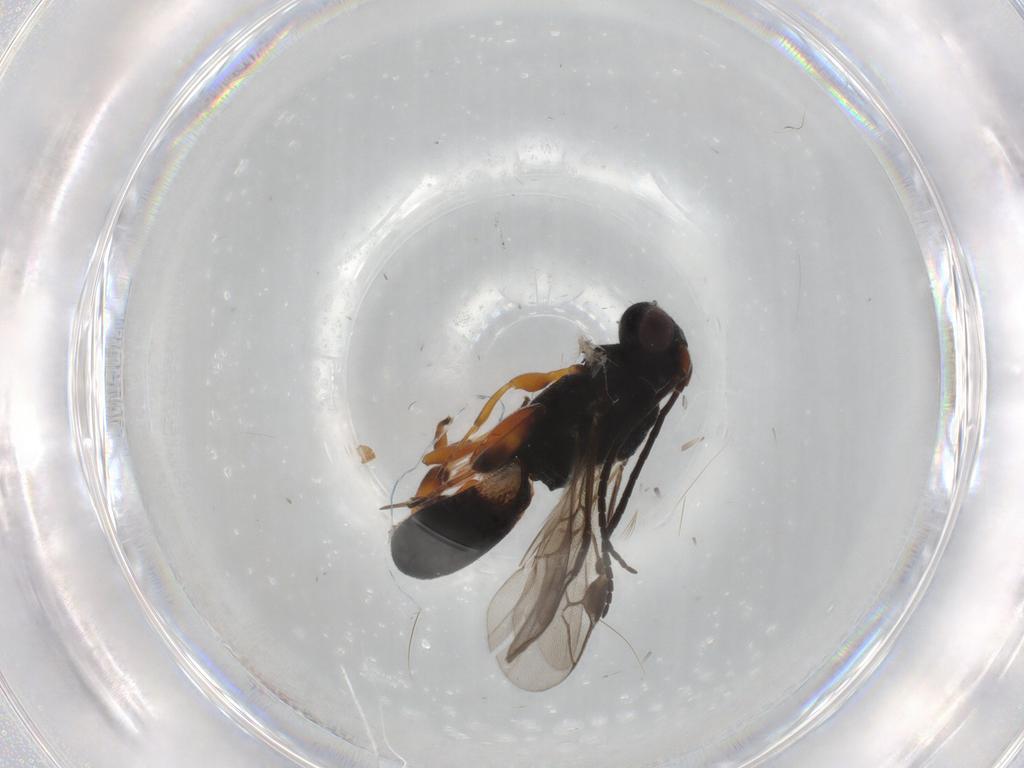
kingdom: Animalia
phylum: Arthropoda
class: Insecta
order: Hymenoptera
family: Braconidae
